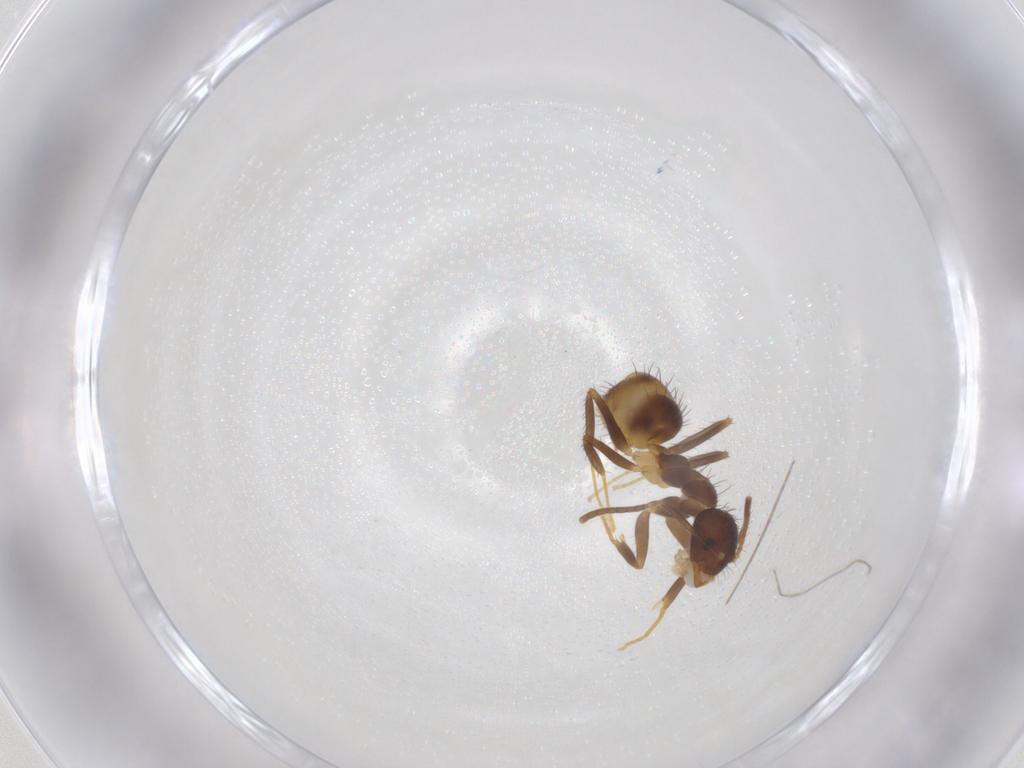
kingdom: Animalia
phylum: Arthropoda
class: Insecta
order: Hymenoptera
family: Formicidae
